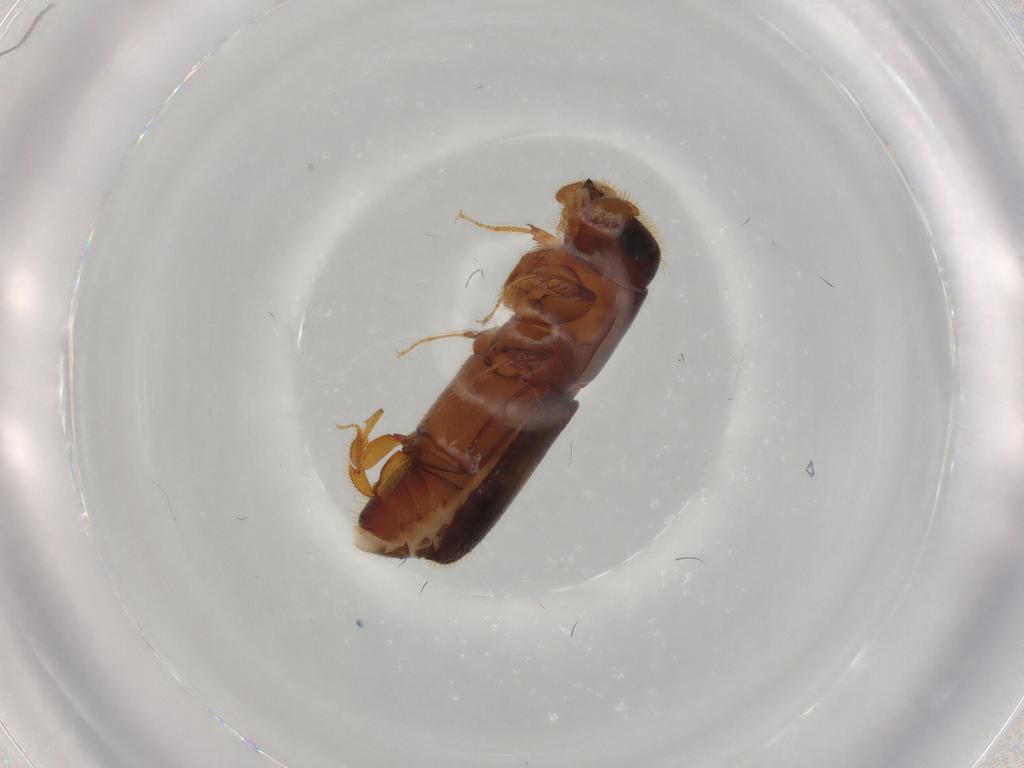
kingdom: Animalia
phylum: Arthropoda
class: Insecta
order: Coleoptera
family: Curculionidae
